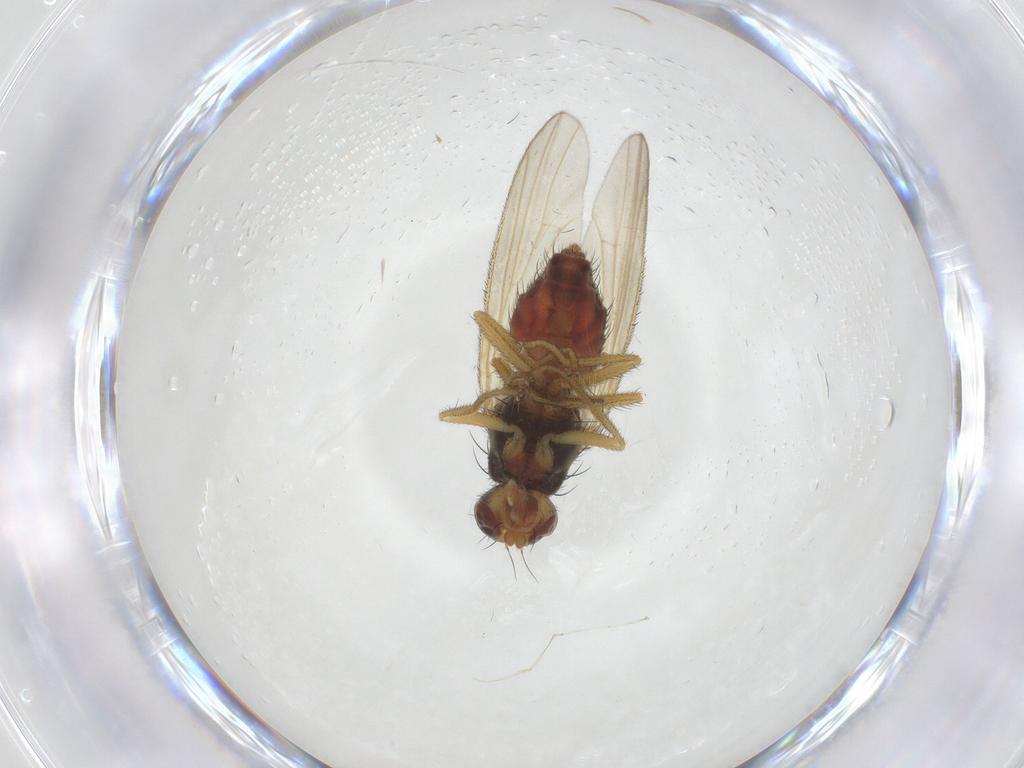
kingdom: Animalia
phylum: Arthropoda
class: Insecta
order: Diptera
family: Heleomyzidae
